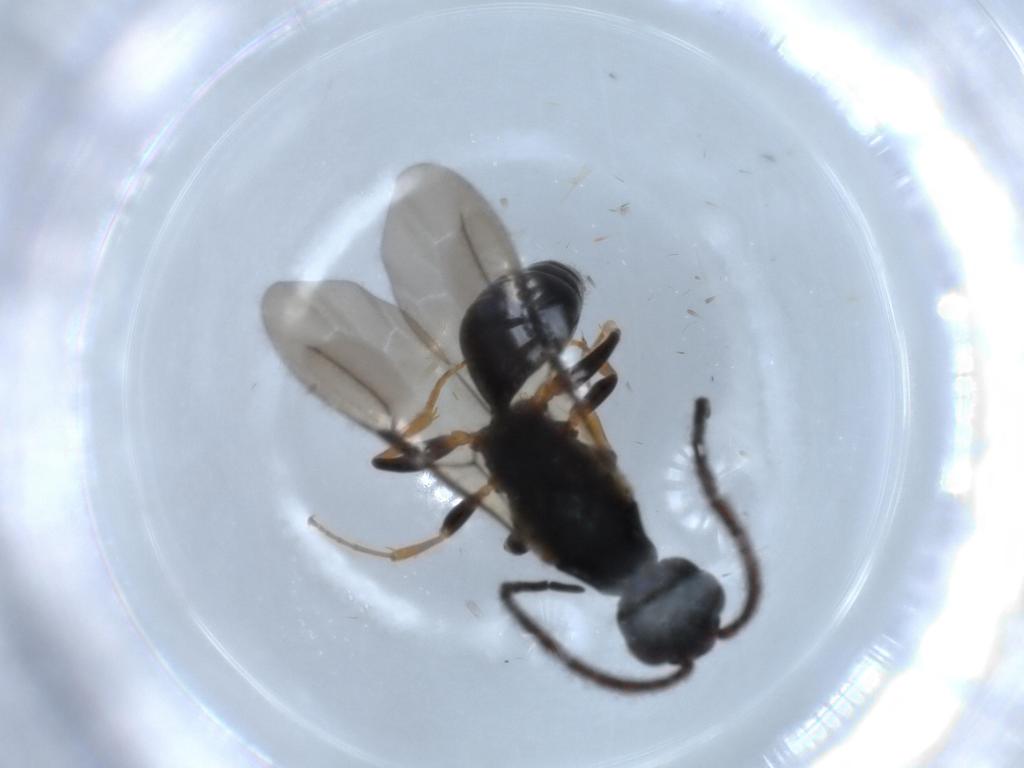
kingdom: Animalia
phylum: Arthropoda
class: Insecta
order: Hymenoptera
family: Bethylidae
